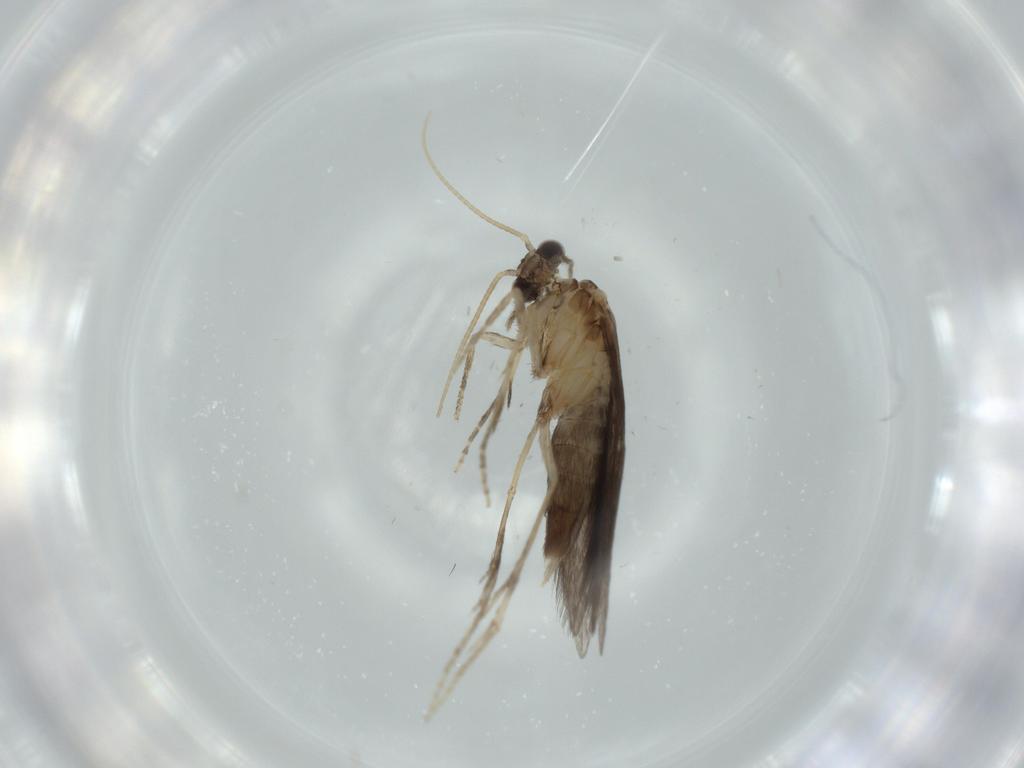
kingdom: Animalia
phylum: Arthropoda
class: Insecta
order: Trichoptera
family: Hydroptilidae
